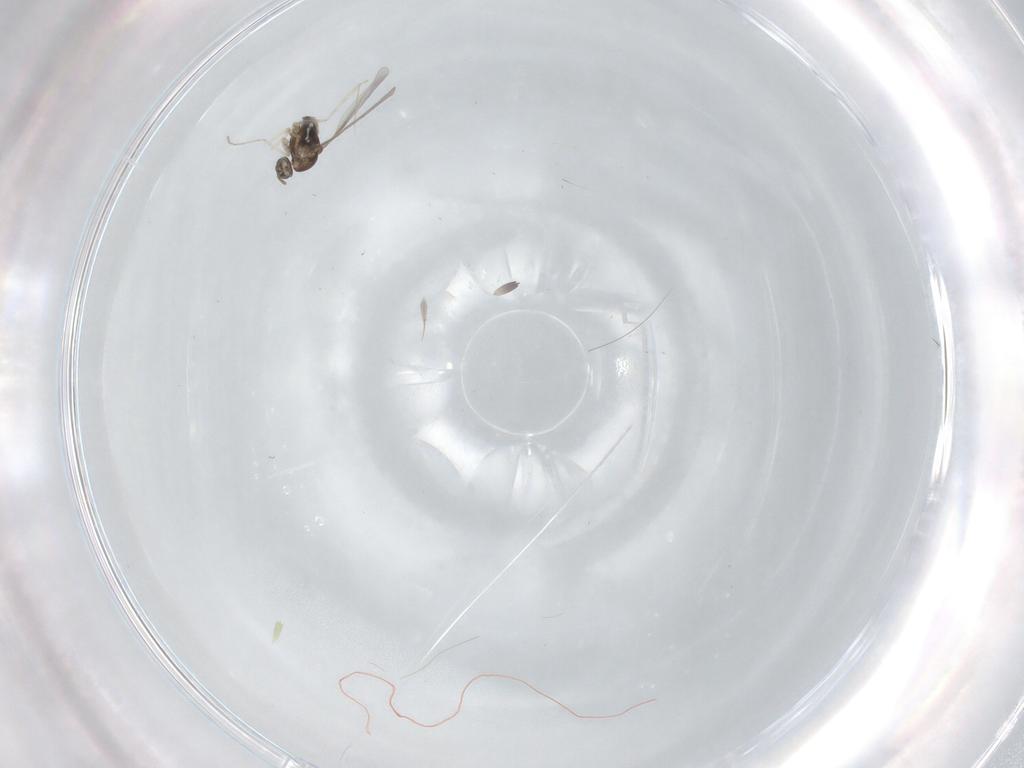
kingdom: Animalia
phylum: Arthropoda
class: Insecta
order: Diptera
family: Cecidomyiidae
